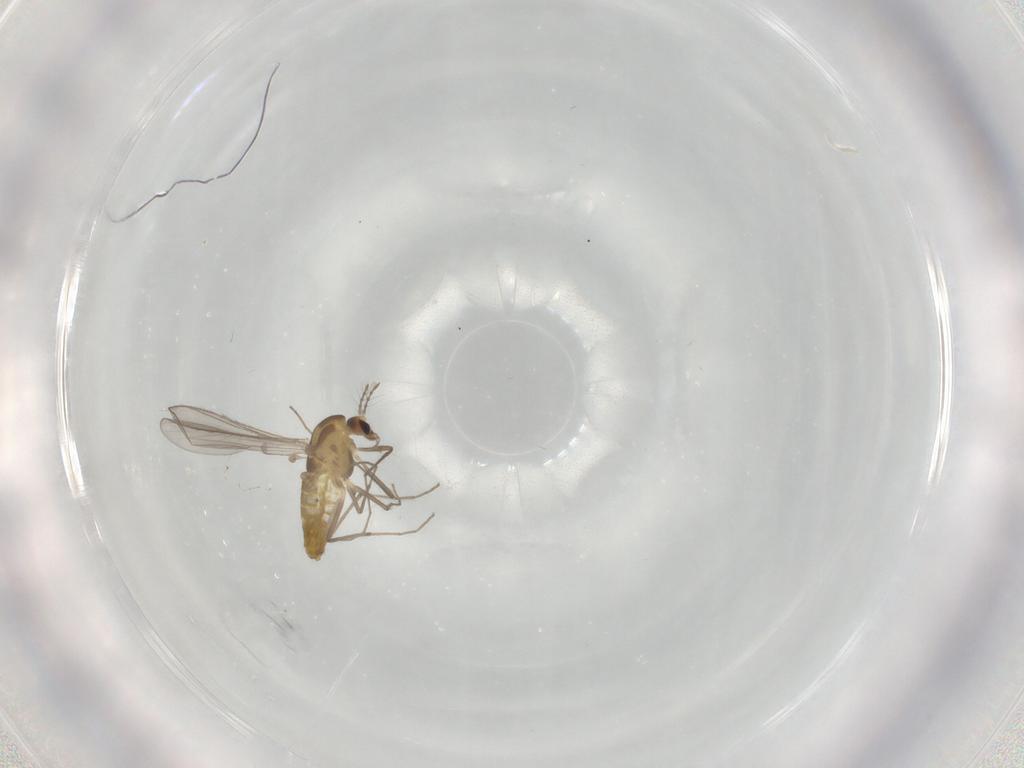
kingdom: Animalia
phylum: Arthropoda
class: Insecta
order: Diptera
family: Chironomidae
